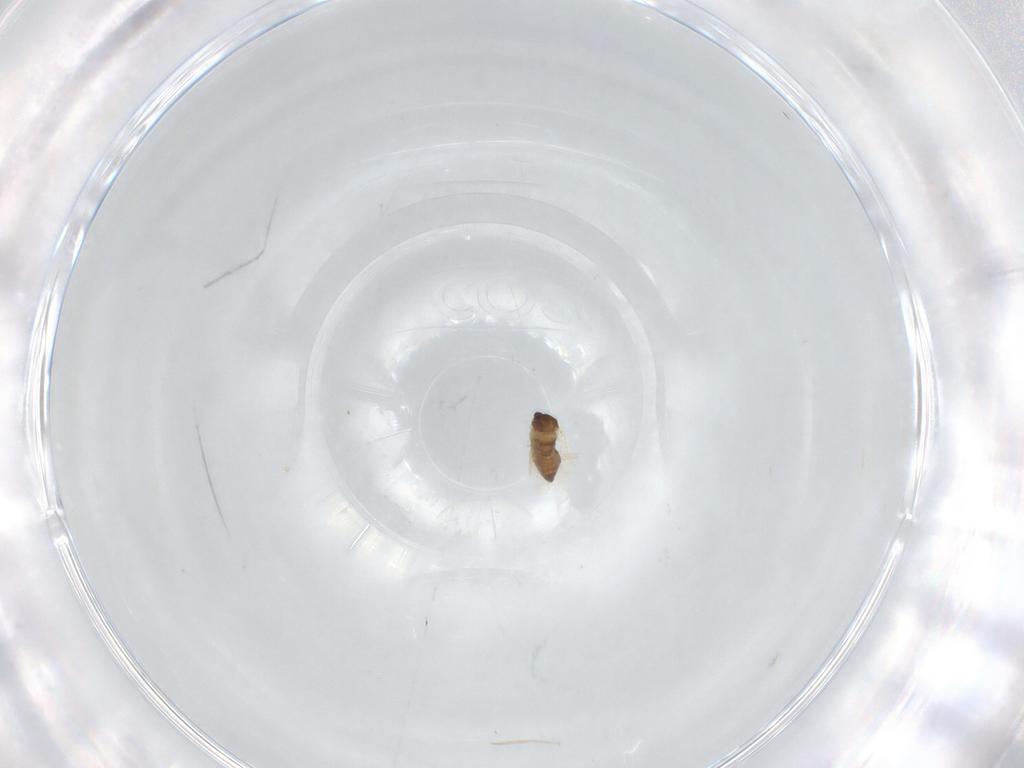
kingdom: Animalia
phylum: Arthropoda
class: Insecta
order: Diptera
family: Cecidomyiidae
